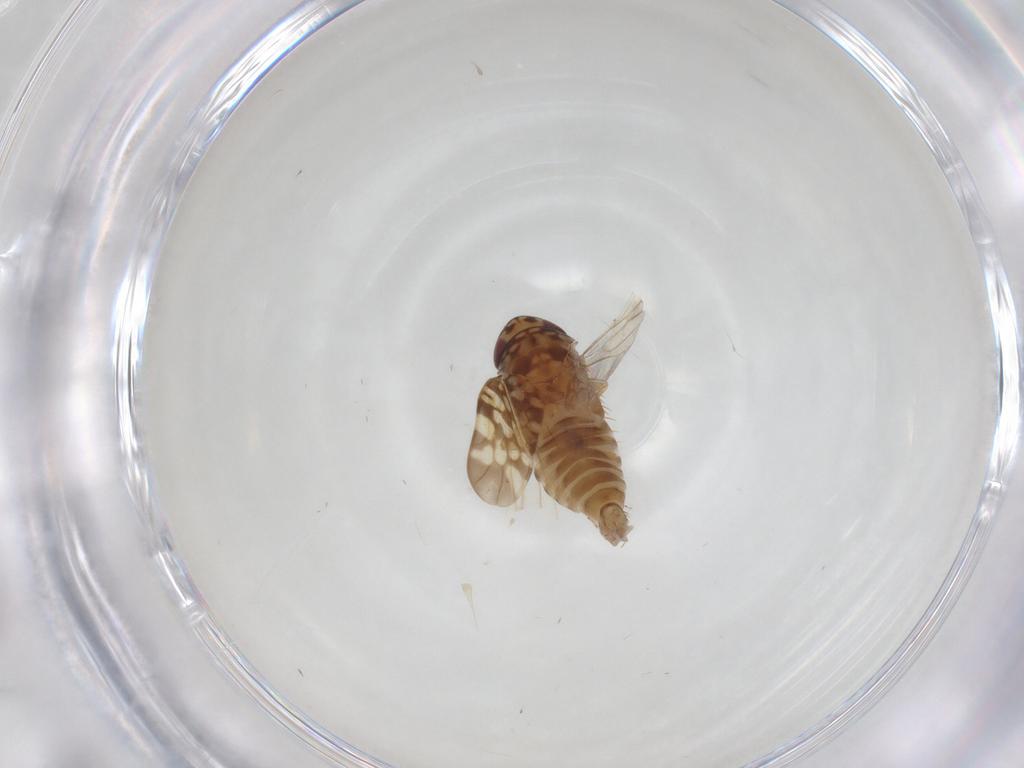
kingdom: Animalia
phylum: Arthropoda
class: Insecta
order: Hemiptera
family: Cicadellidae
